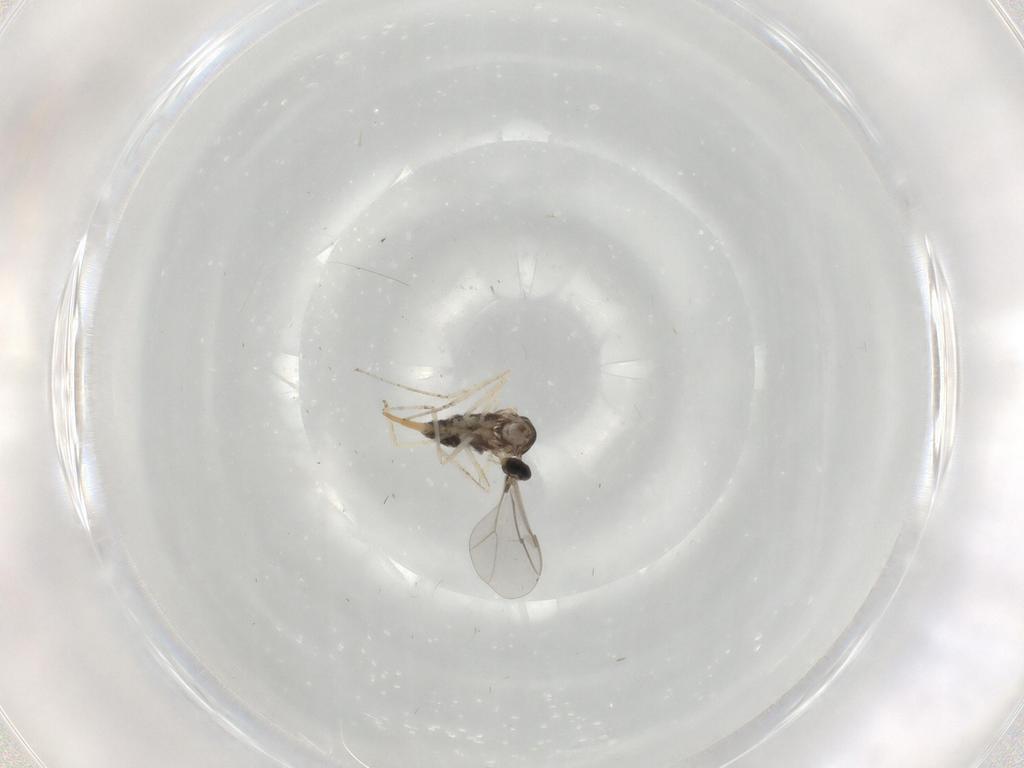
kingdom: Animalia
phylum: Arthropoda
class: Insecta
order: Diptera
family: Cecidomyiidae
